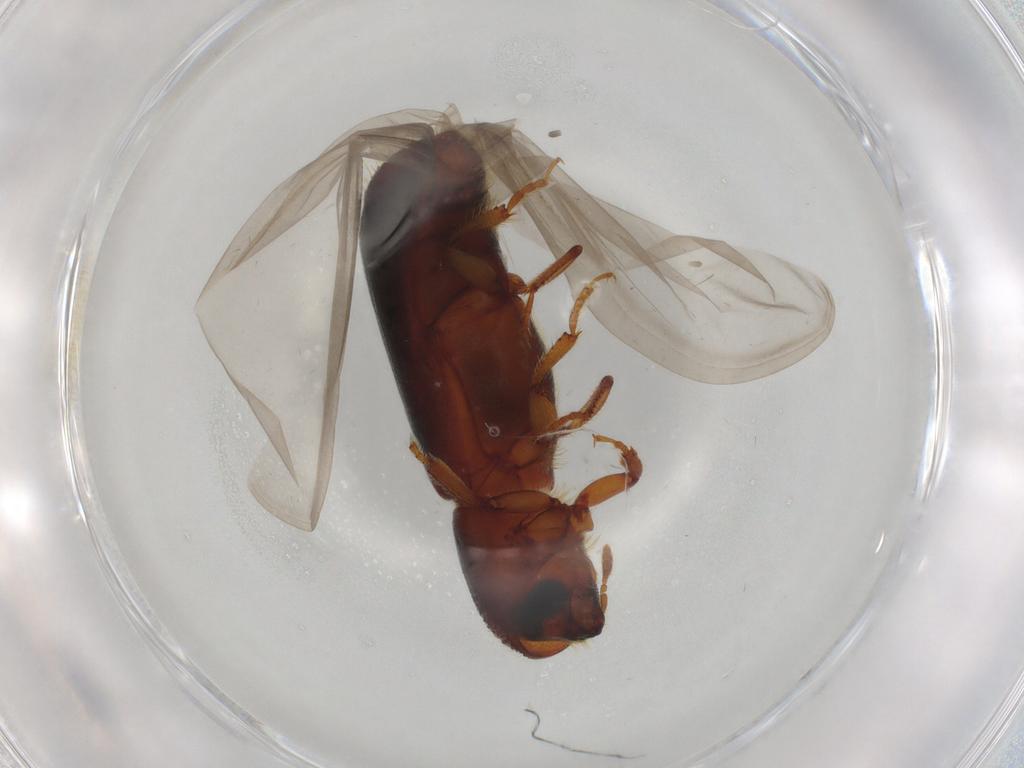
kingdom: Animalia
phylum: Arthropoda
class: Insecta
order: Coleoptera
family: Curculionidae
